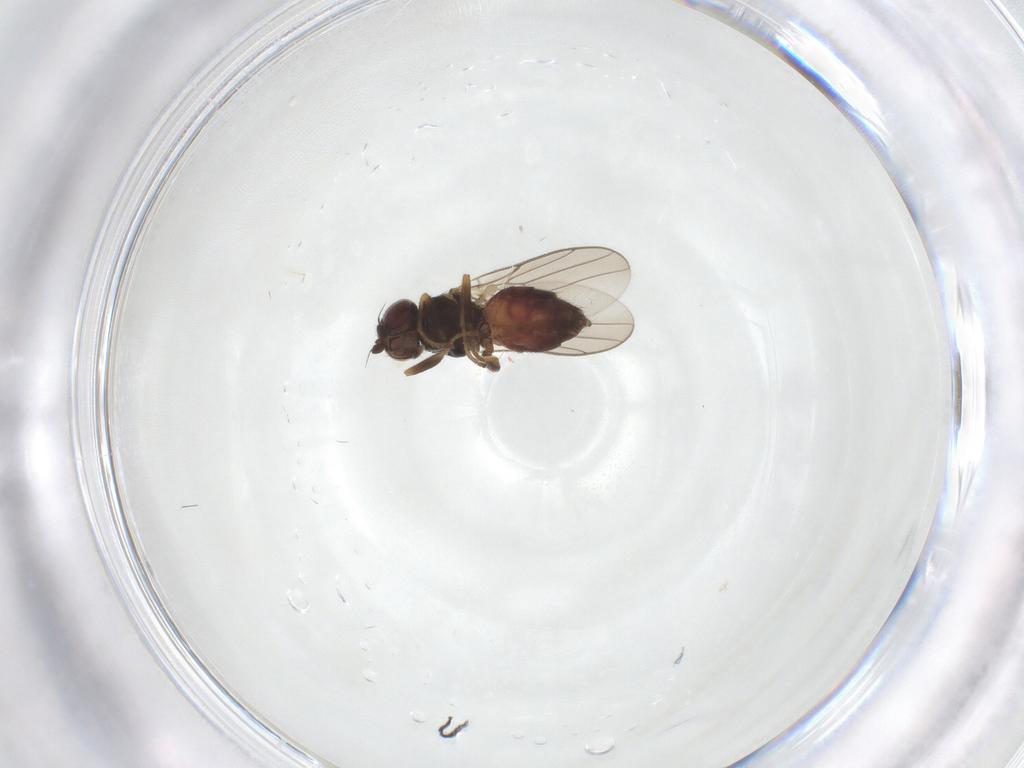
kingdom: Animalia
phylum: Arthropoda
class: Insecta
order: Diptera
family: Chloropidae
